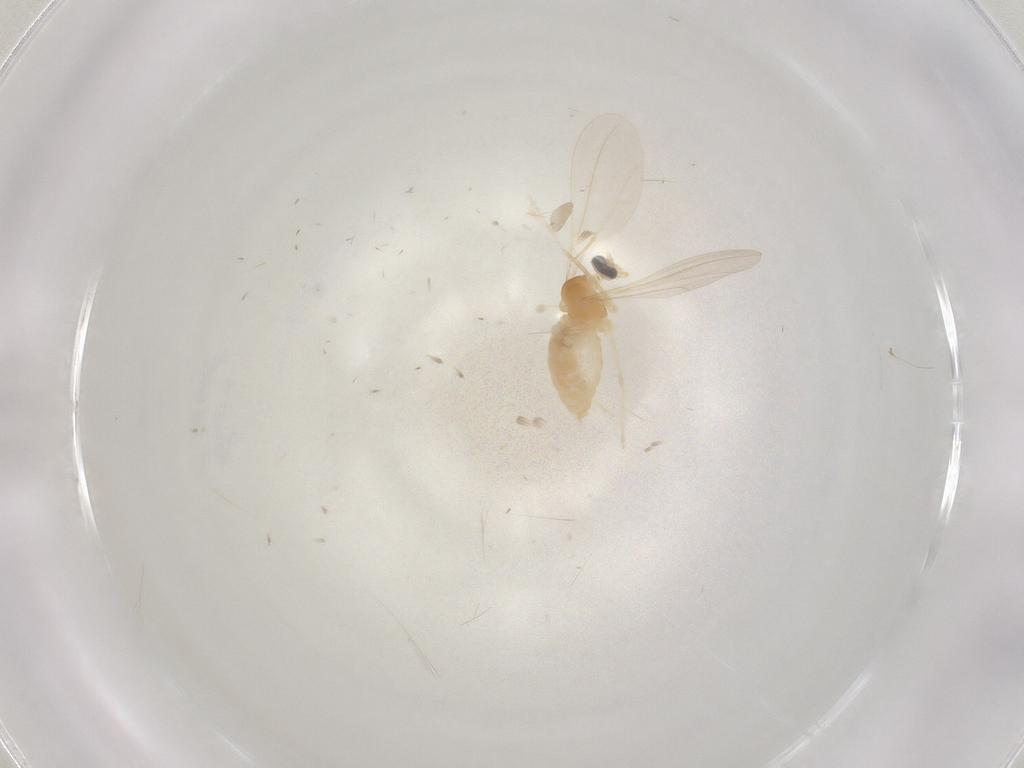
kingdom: Animalia
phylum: Arthropoda
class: Insecta
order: Diptera
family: Cecidomyiidae
